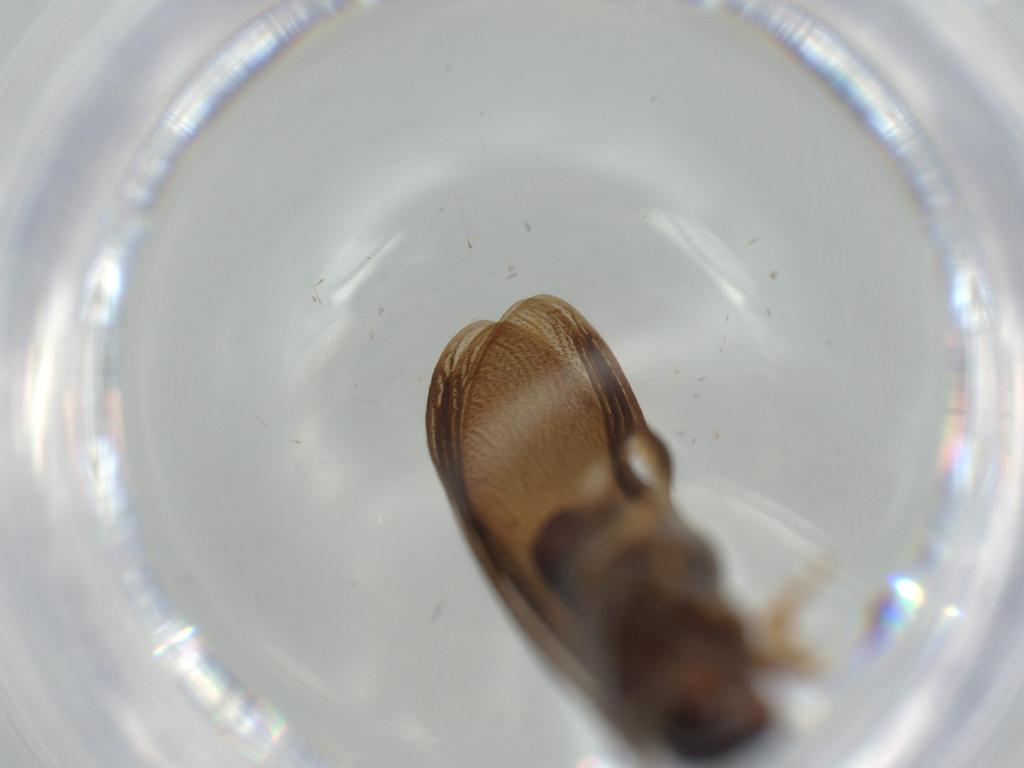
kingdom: Animalia
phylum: Arthropoda
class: Insecta
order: Blattodea
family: Kalotermitidae
